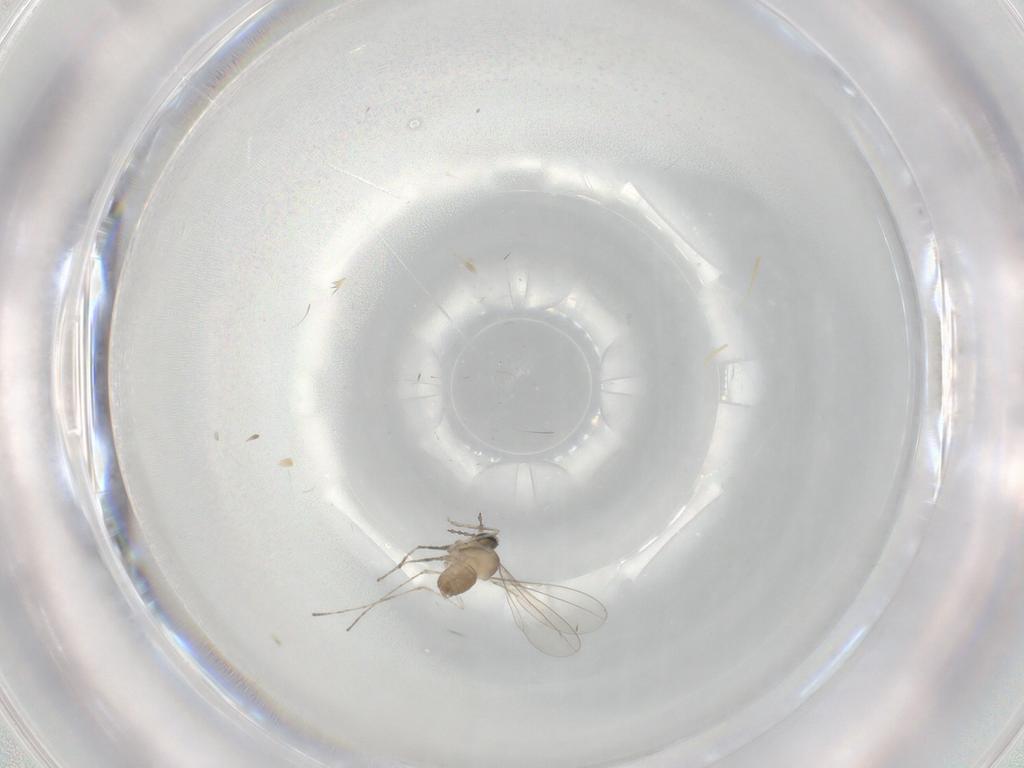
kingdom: Animalia
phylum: Arthropoda
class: Insecta
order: Diptera
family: Cecidomyiidae
